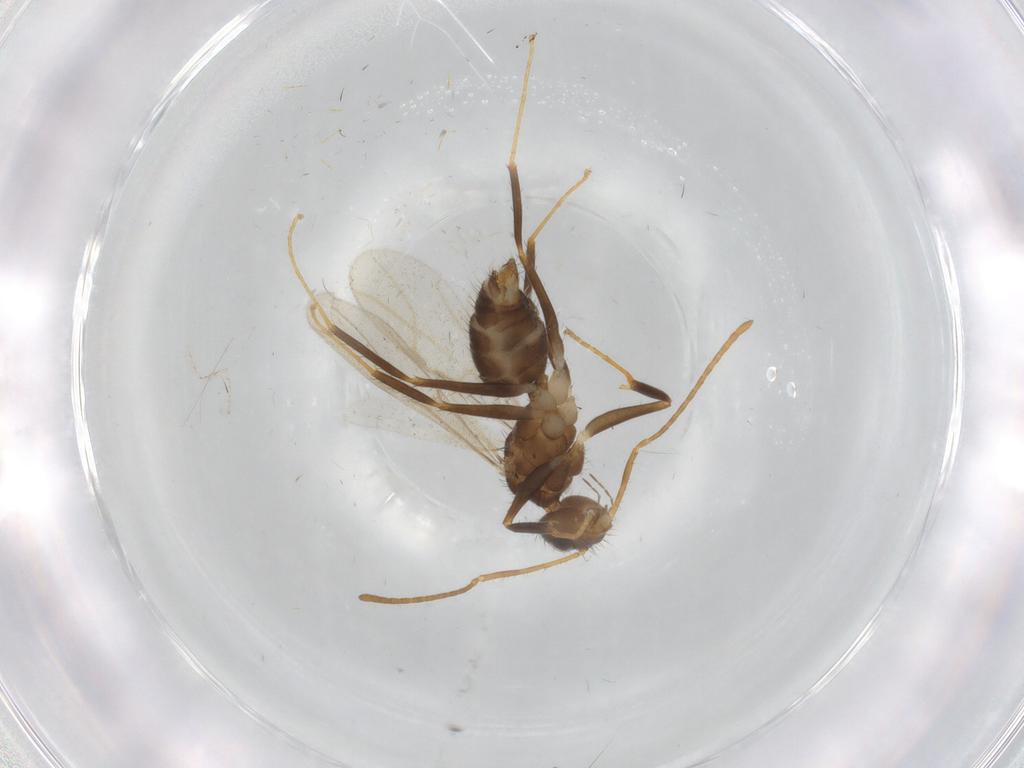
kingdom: Animalia
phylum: Arthropoda
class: Insecta
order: Hymenoptera
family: Formicidae
